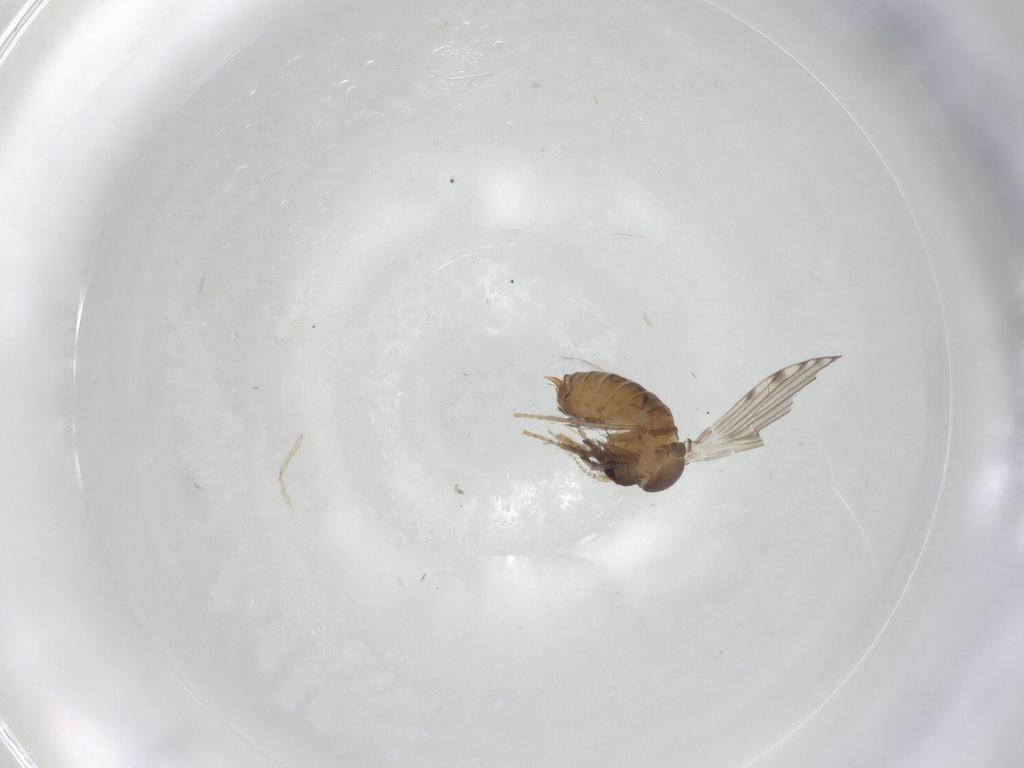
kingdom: Animalia
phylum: Arthropoda
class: Insecta
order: Diptera
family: Psychodidae
